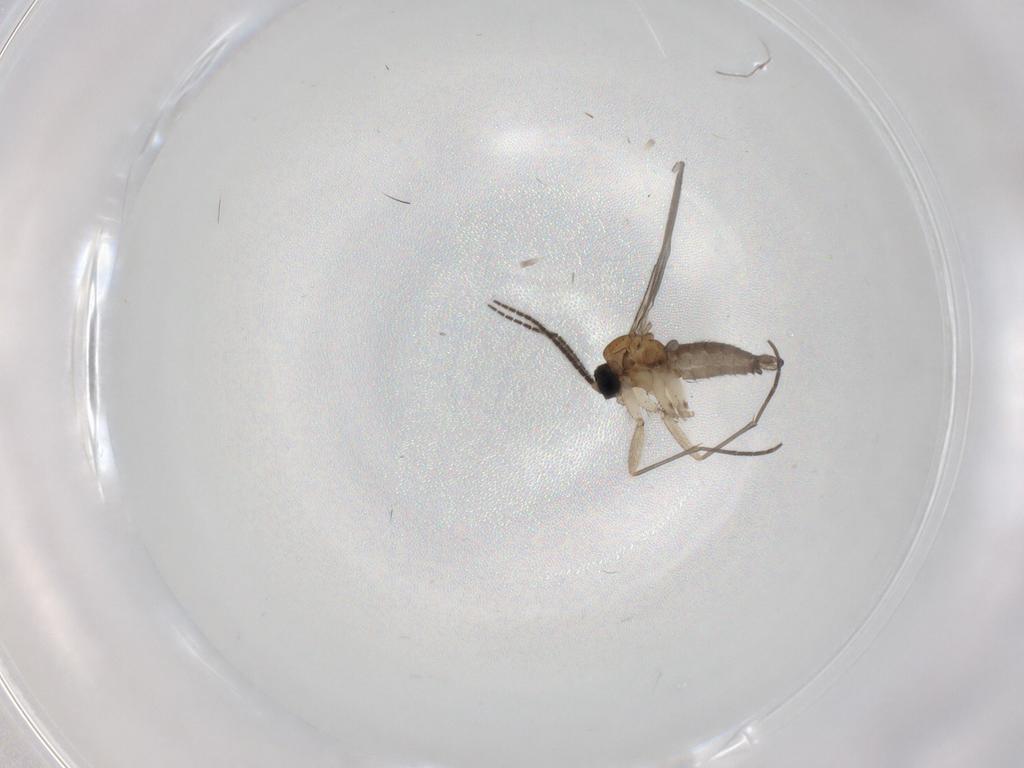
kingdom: Animalia
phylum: Arthropoda
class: Insecta
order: Diptera
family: Sciaridae
